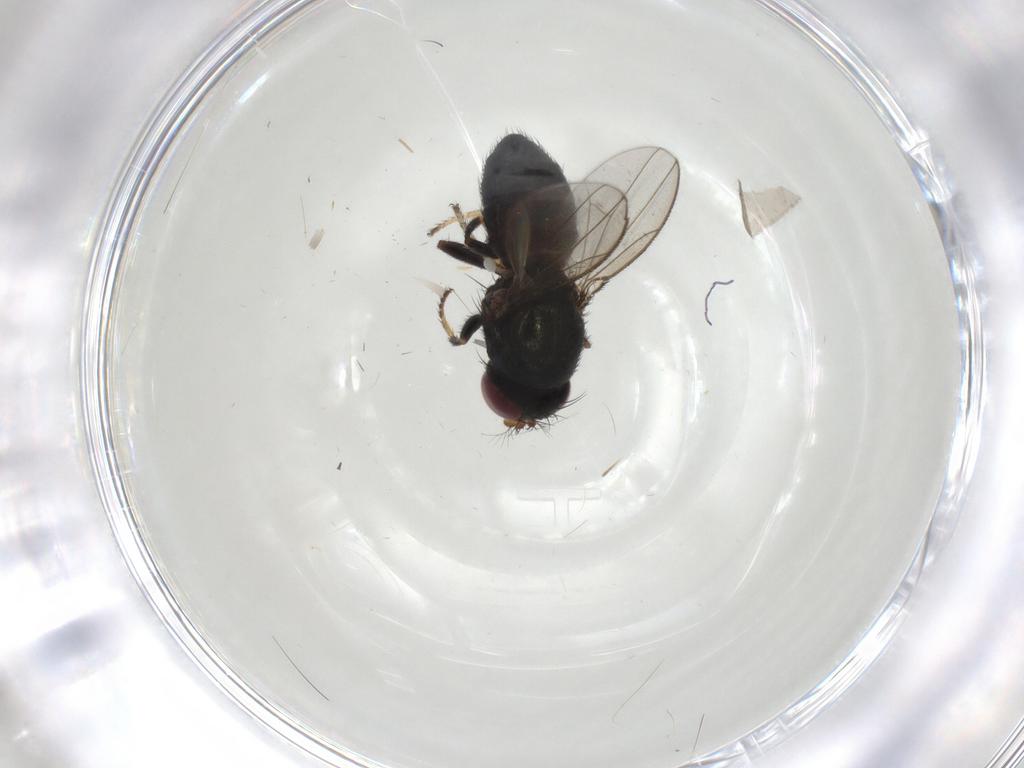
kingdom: Animalia
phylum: Arthropoda
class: Insecta
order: Diptera
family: Ephydridae
